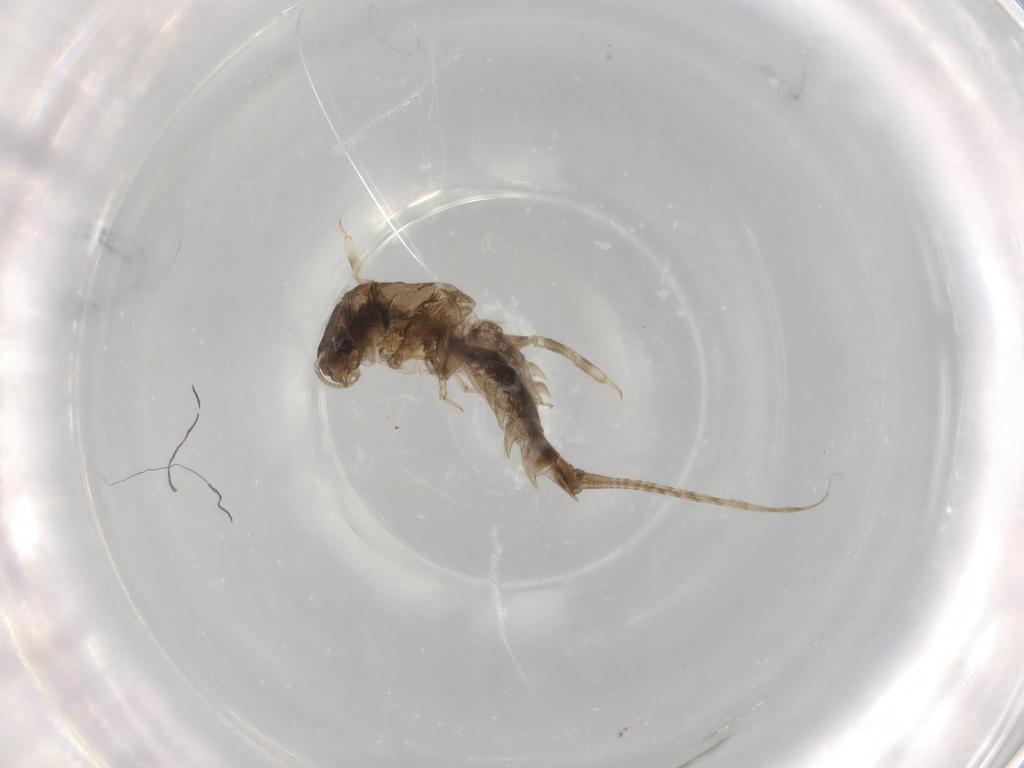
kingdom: Animalia
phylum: Arthropoda
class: Insecta
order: Ephemeroptera
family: Caenidae
